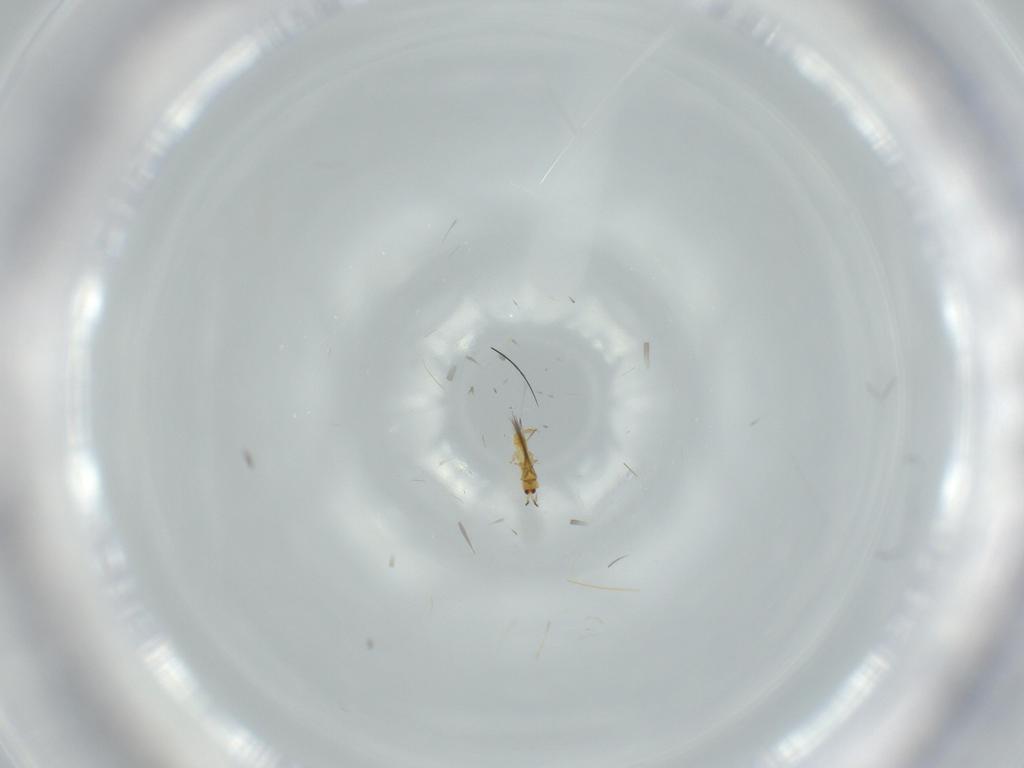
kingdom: Animalia
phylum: Arthropoda
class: Insecta
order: Thysanoptera
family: Thripidae
